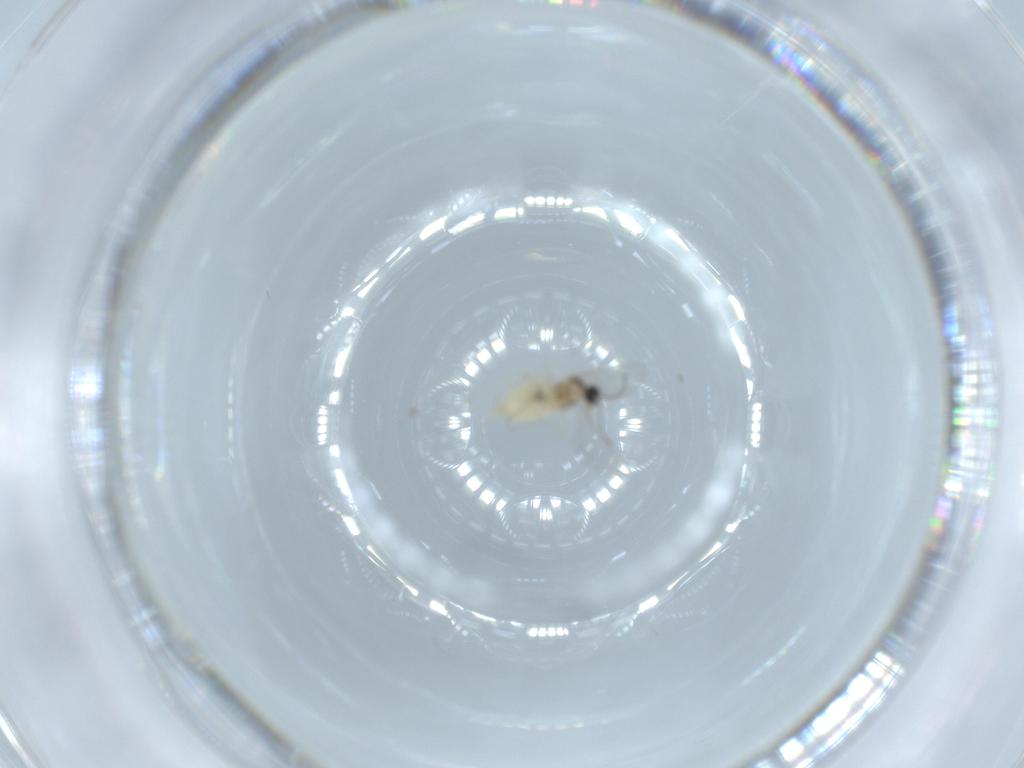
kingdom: Animalia
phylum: Arthropoda
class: Insecta
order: Diptera
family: Cecidomyiidae
